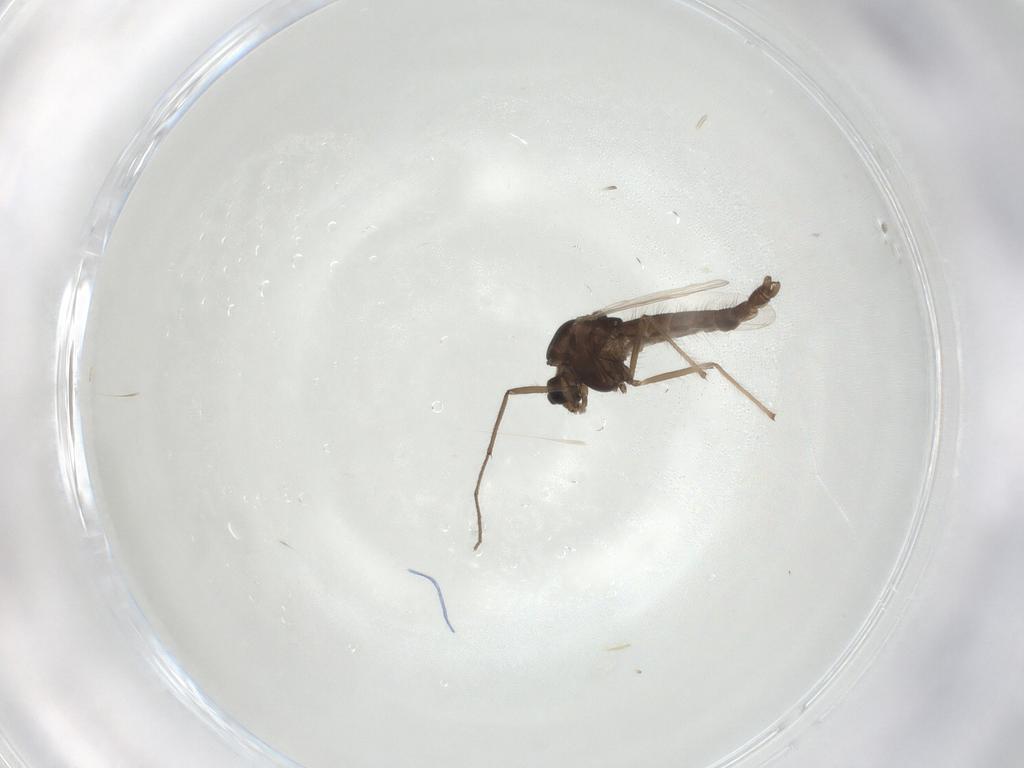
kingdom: Animalia
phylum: Arthropoda
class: Insecta
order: Diptera
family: Chironomidae
